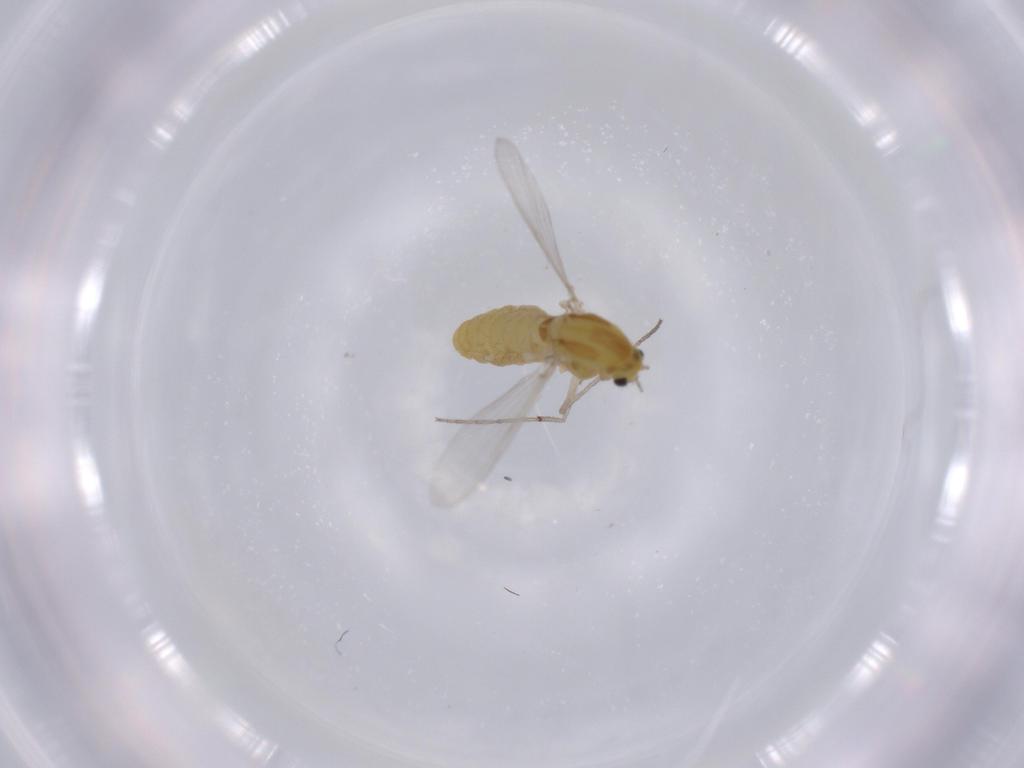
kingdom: Animalia
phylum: Arthropoda
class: Insecta
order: Diptera
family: Chironomidae
